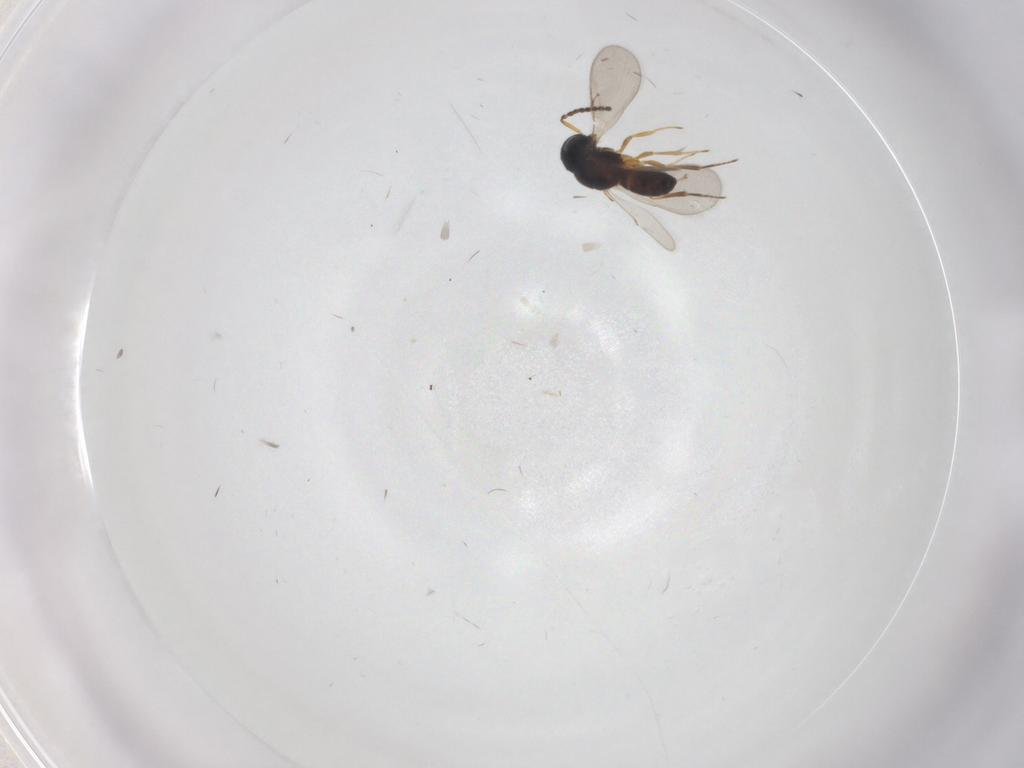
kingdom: Animalia
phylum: Arthropoda
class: Insecta
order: Hymenoptera
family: Scelionidae
